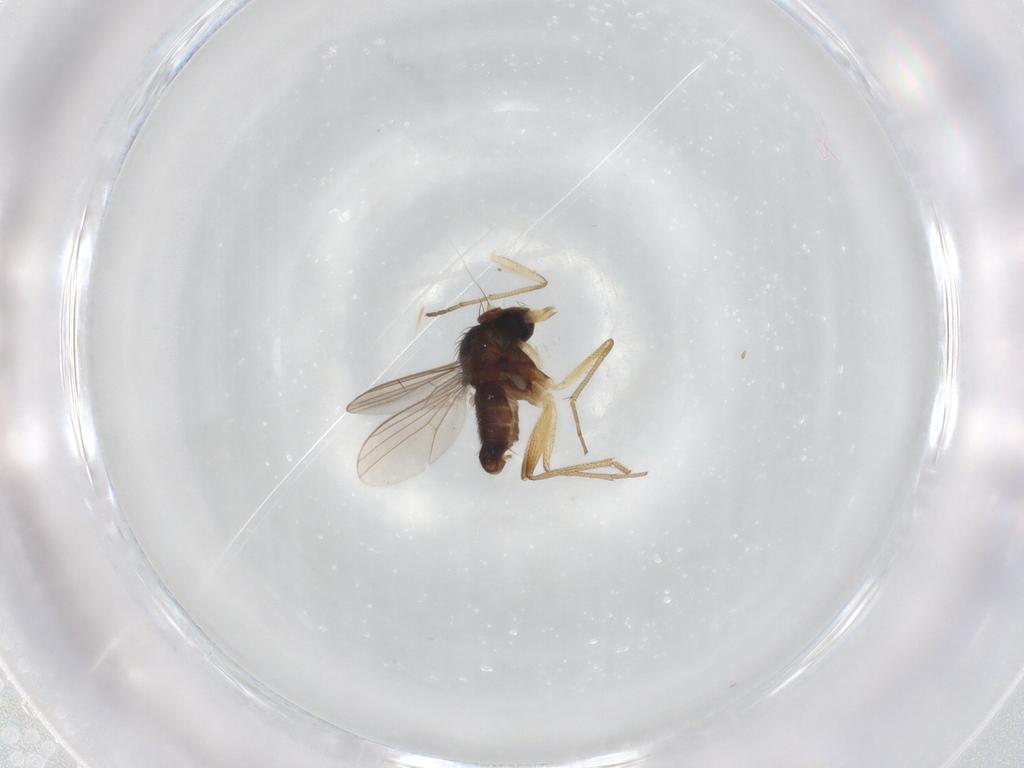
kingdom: Animalia
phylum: Arthropoda
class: Insecta
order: Diptera
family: Dolichopodidae
